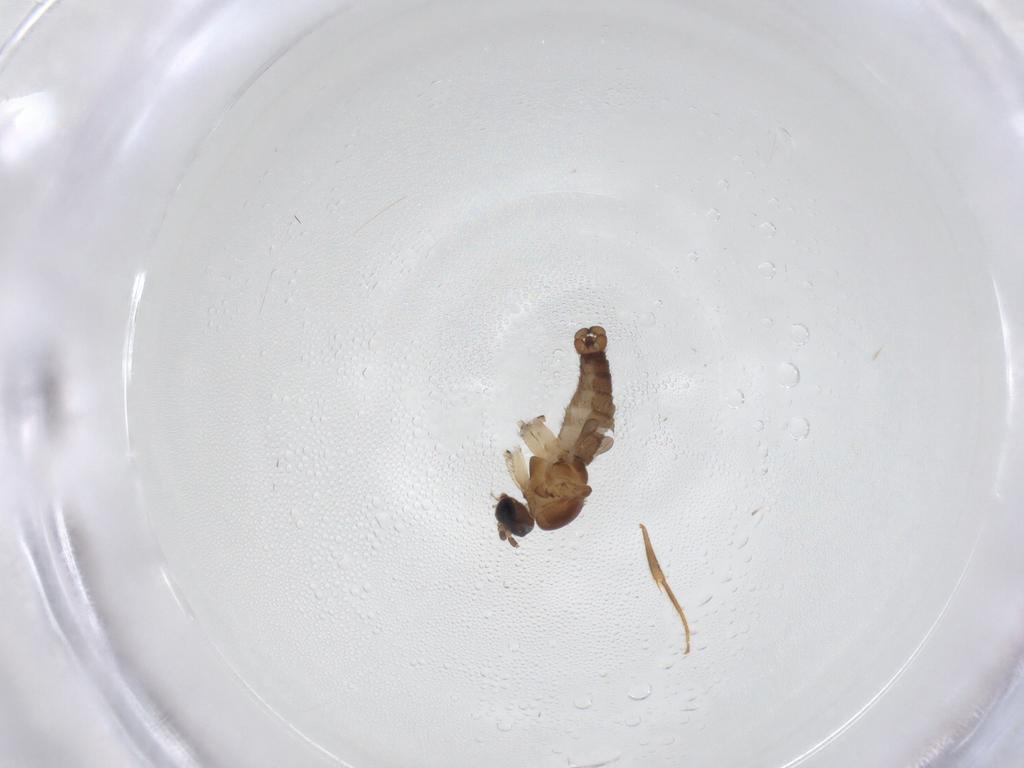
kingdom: Animalia
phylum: Arthropoda
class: Insecta
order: Diptera
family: Sciaridae
